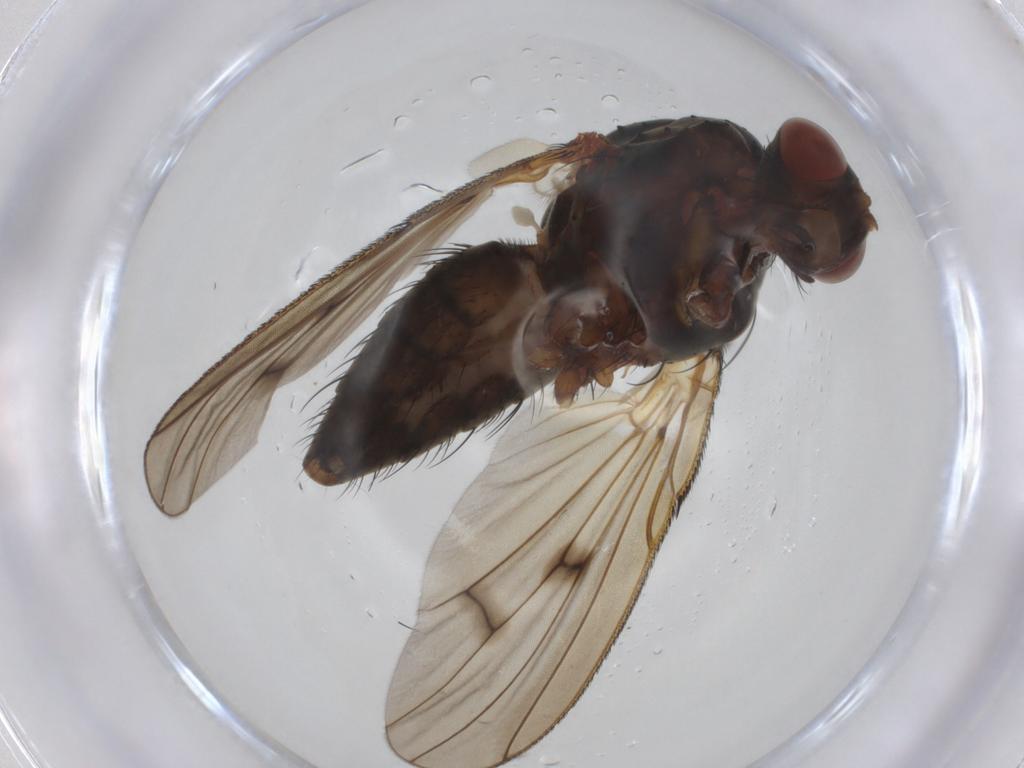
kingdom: Animalia
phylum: Arthropoda
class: Insecta
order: Diptera
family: Anthomyiidae
